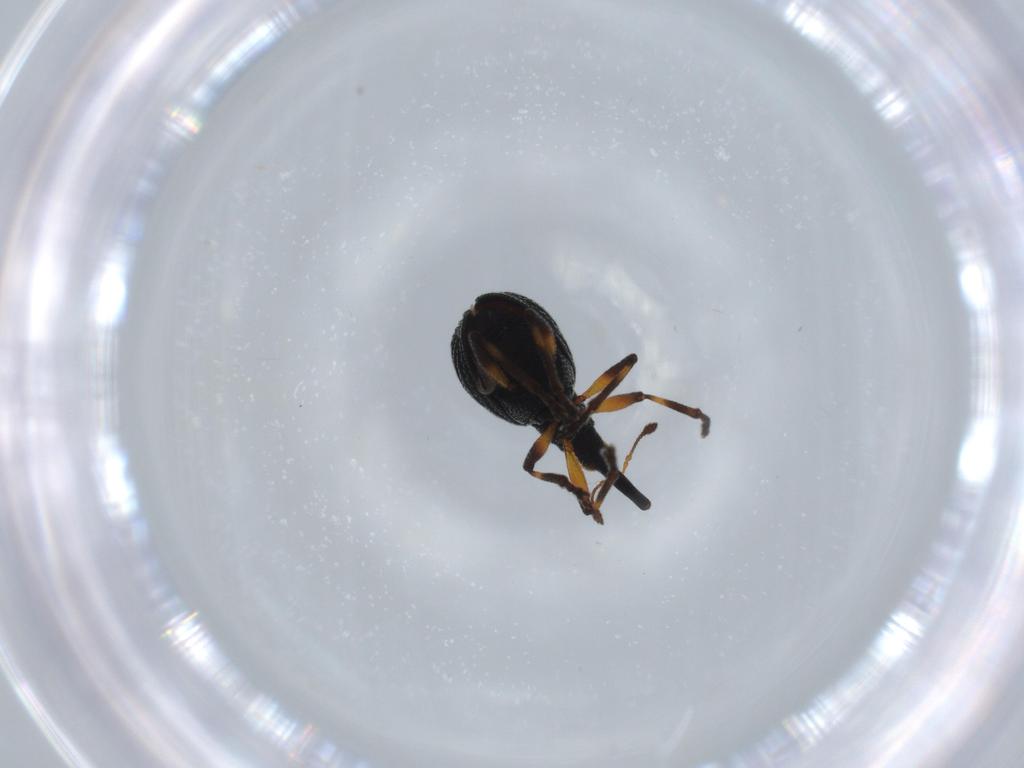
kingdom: Animalia
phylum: Arthropoda
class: Insecta
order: Coleoptera
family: Brentidae
